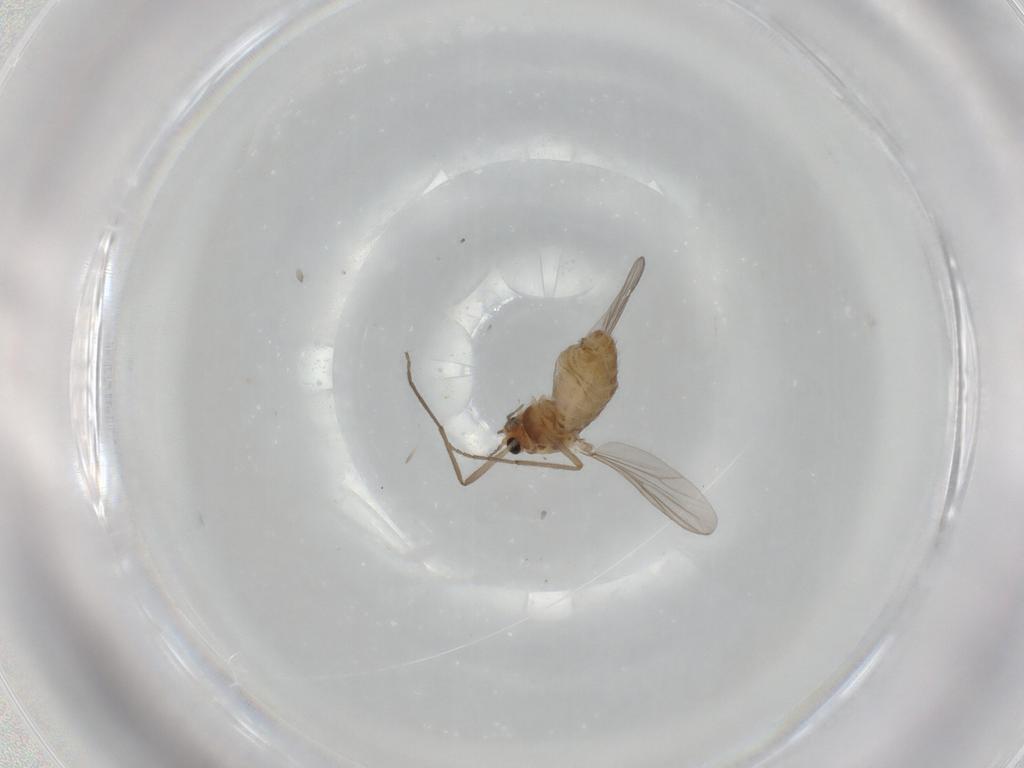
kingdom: Animalia
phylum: Arthropoda
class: Insecta
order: Diptera
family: Chironomidae
